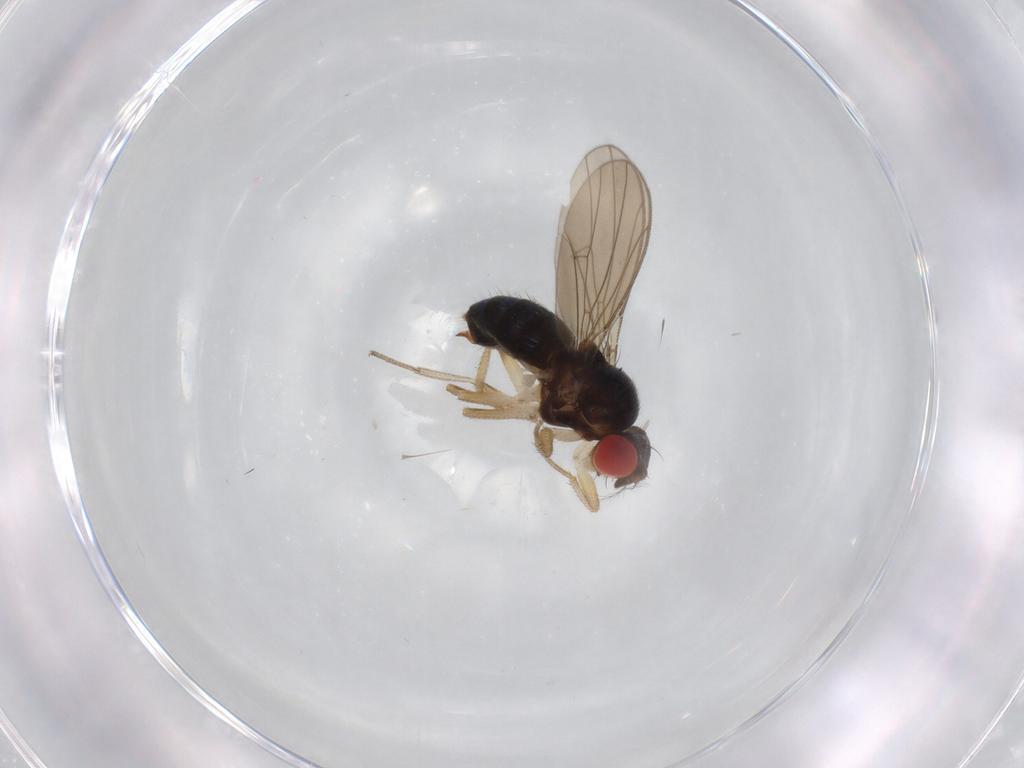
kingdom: Animalia
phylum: Arthropoda
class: Insecta
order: Diptera
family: Drosophilidae
